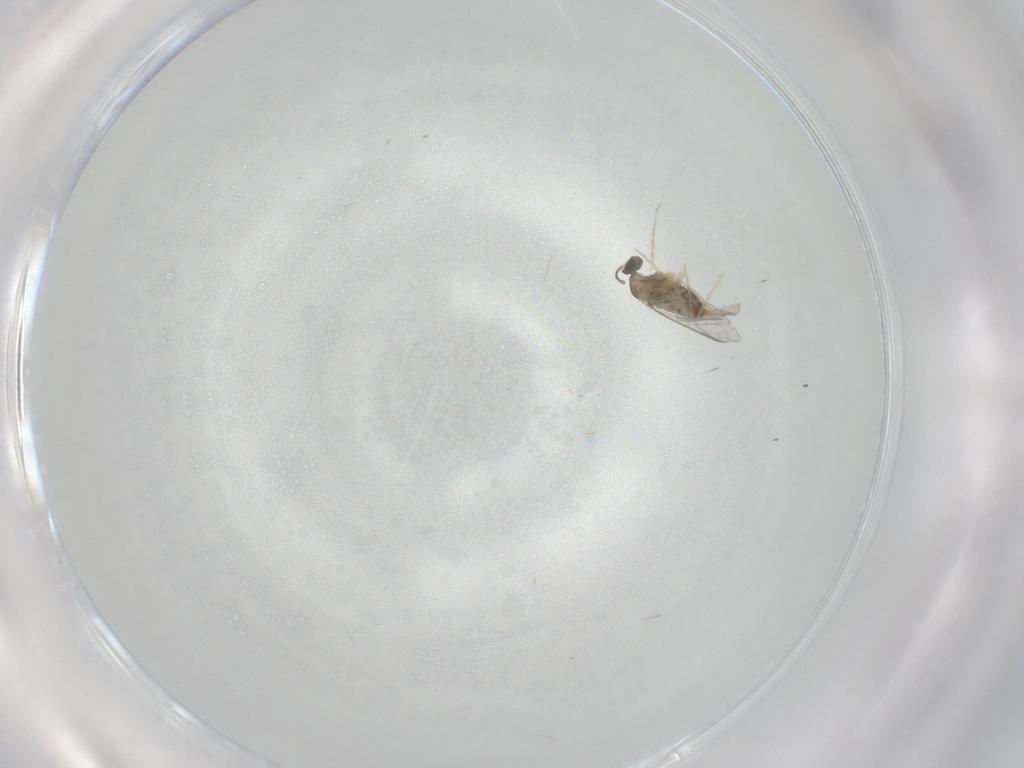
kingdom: Animalia
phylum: Arthropoda
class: Insecta
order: Diptera
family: Cecidomyiidae
